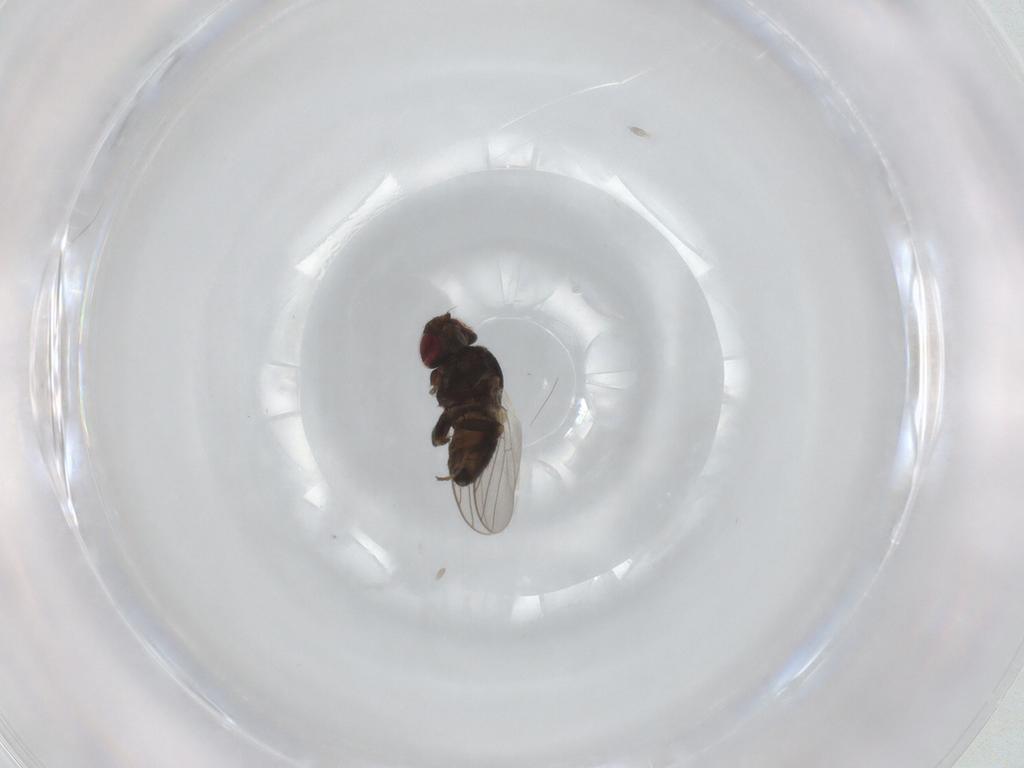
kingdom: Animalia
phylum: Arthropoda
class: Insecta
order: Diptera
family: Chloropidae
